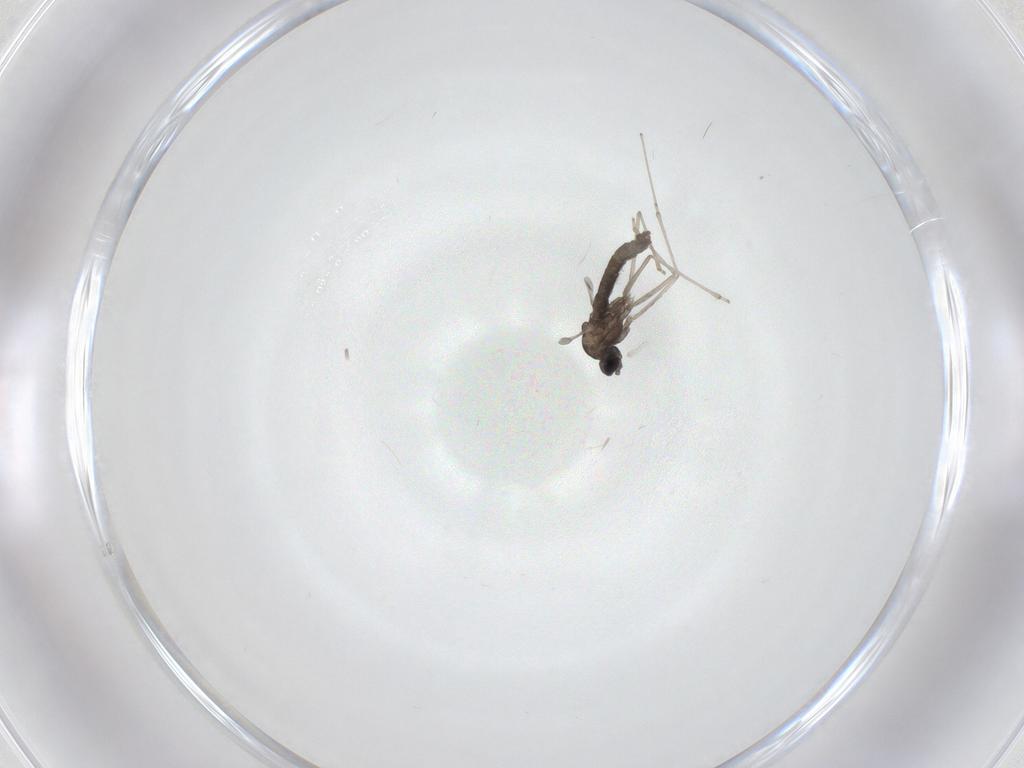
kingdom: Animalia
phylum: Arthropoda
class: Insecta
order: Diptera
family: Cecidomyiidae
